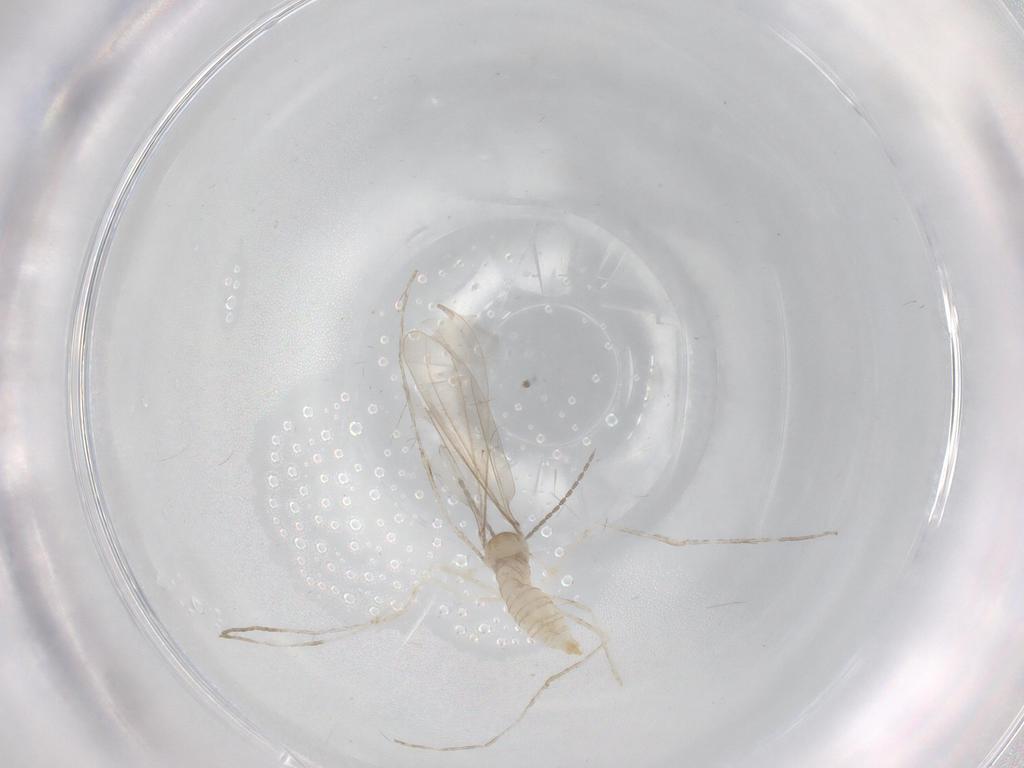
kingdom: Animalia
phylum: Arthropoda
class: Insecta
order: Diptera
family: Cecidomyiidae
